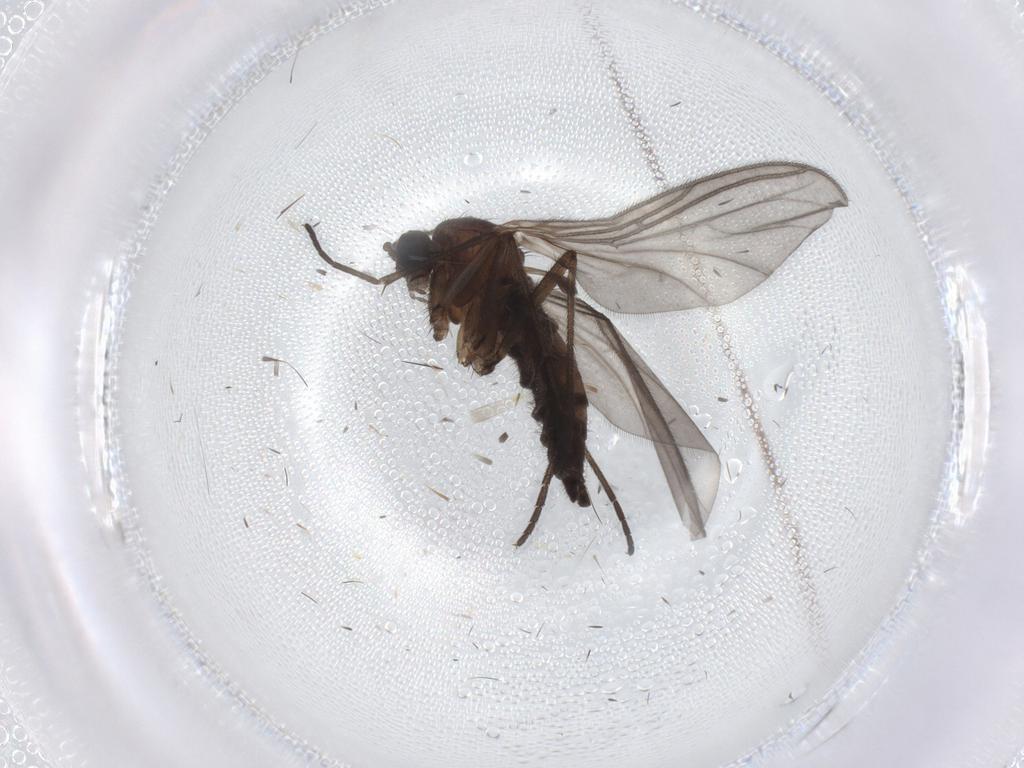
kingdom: Animalia
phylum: Arthropoda
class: Insecta
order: Diptera
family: Sciaridae
